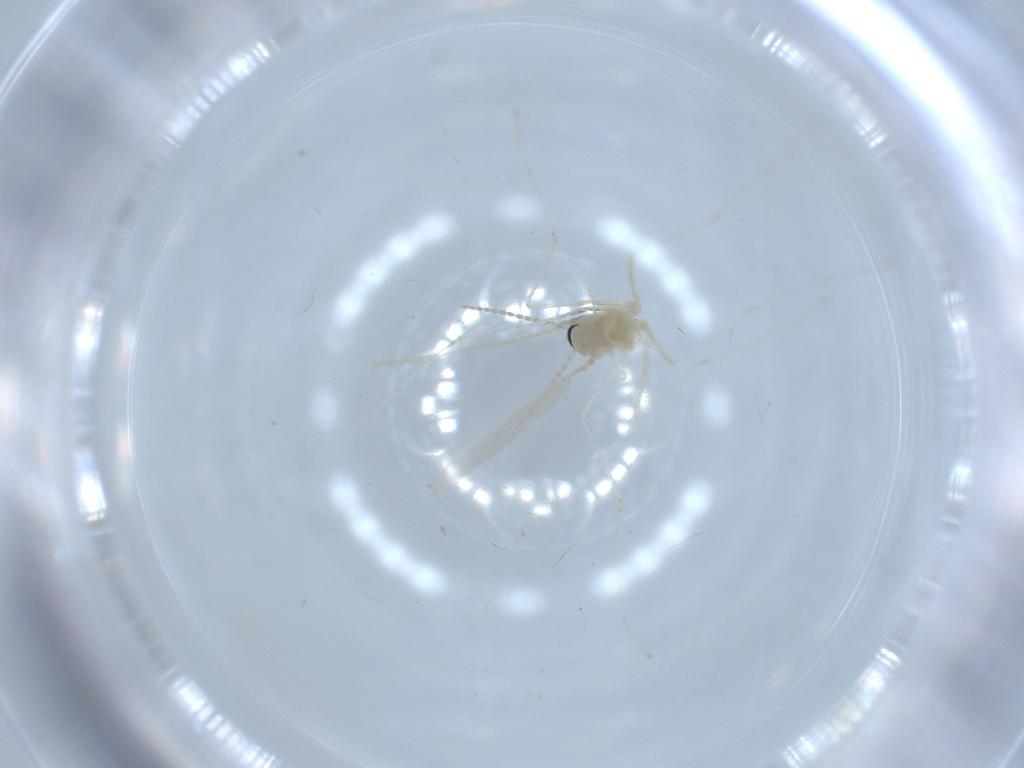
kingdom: Animalia
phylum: Arthropoda
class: Insecta
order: Diptera
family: Cecidomyiidae
